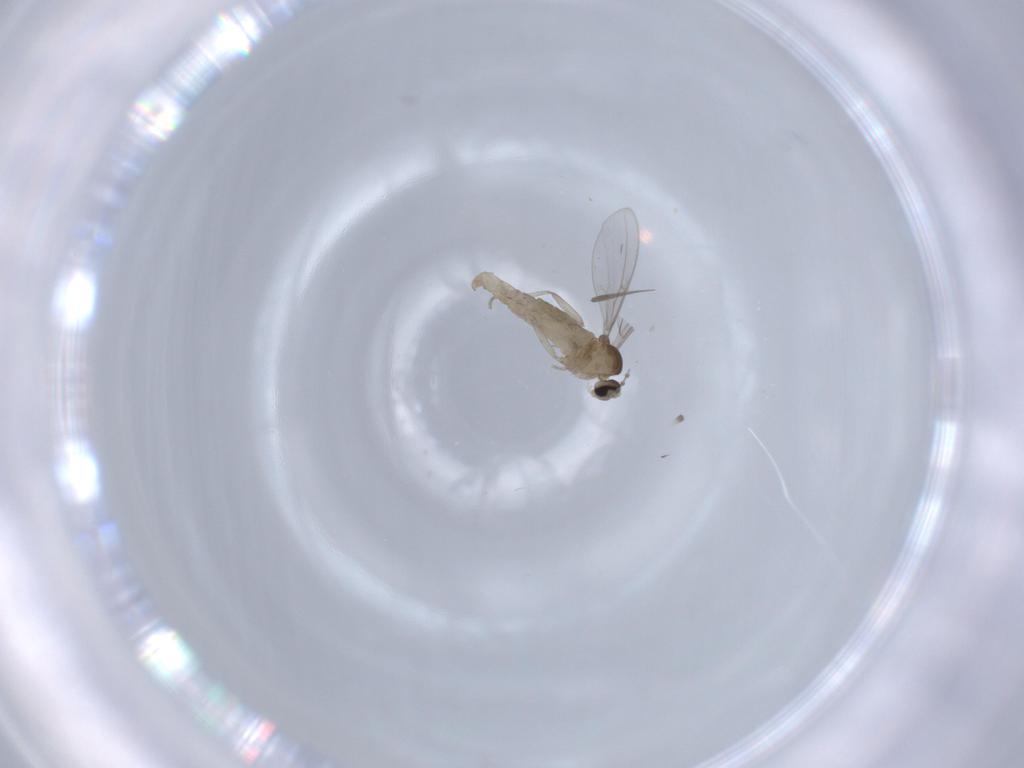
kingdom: Animalia
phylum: Arthropoda
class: Insecta
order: Diptera
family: Cecidomyiidae
